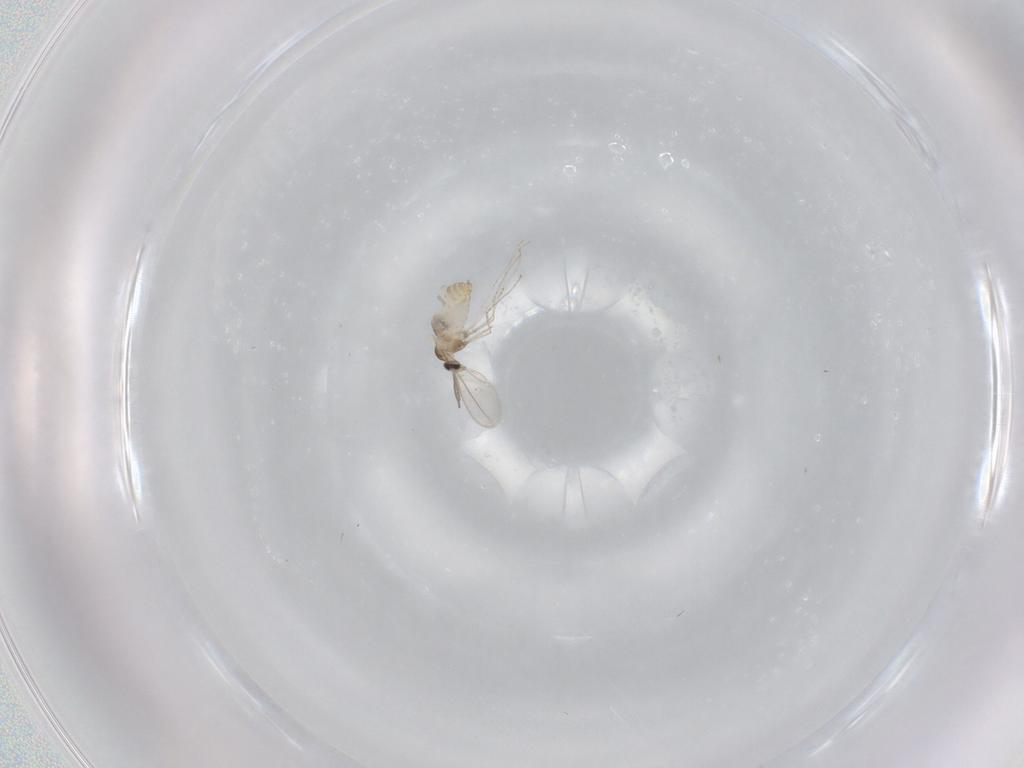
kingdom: Animalia
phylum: Arthropoda
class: Insecta
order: Diptera
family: Cecidomyiidae
